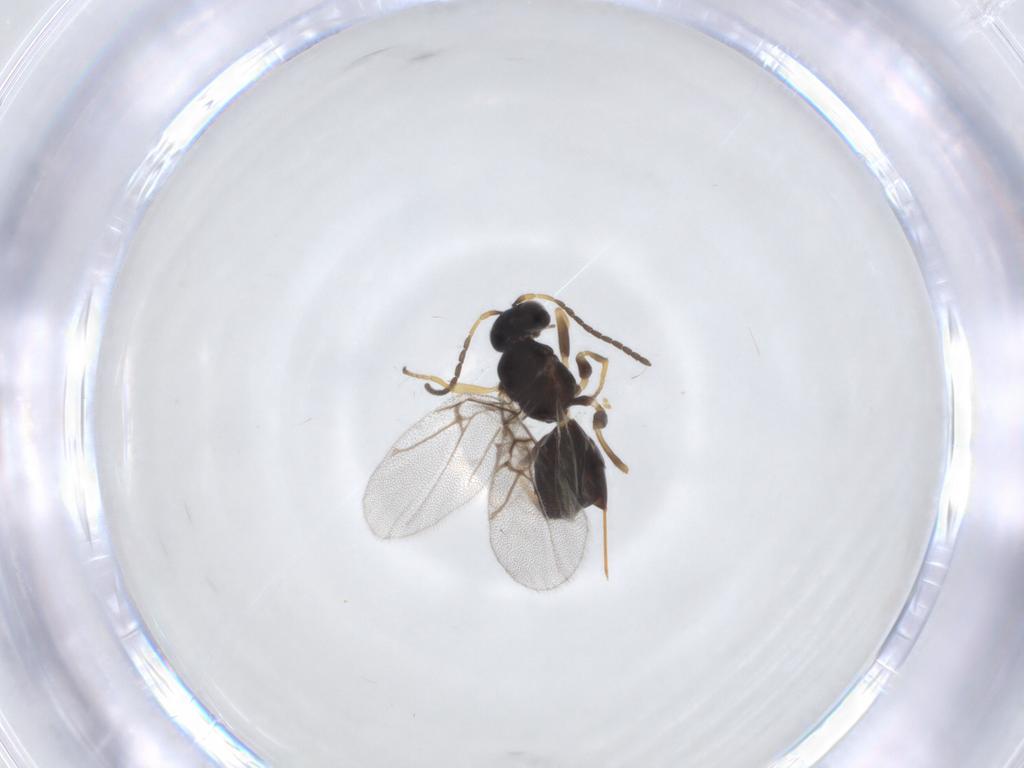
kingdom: Animalia
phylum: Arthropoda
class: Insecta
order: Hymenoptera
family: Cynipidae
